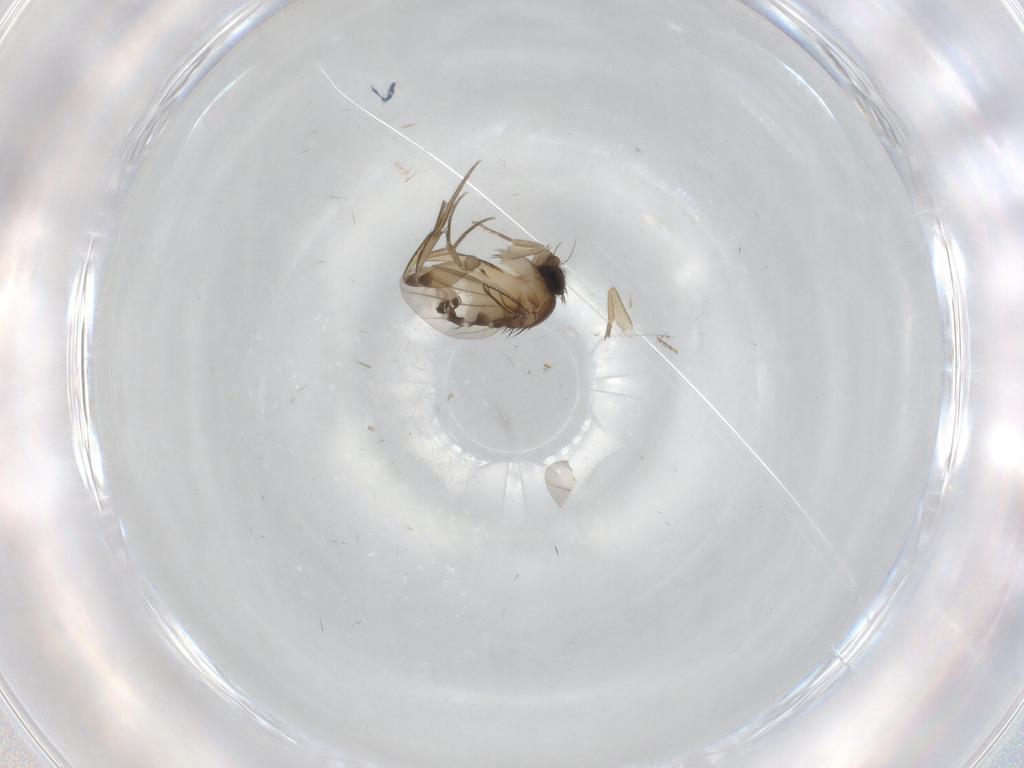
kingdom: Animalia
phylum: Arthropoda
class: Insecta
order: Diptera
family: Phoridae
